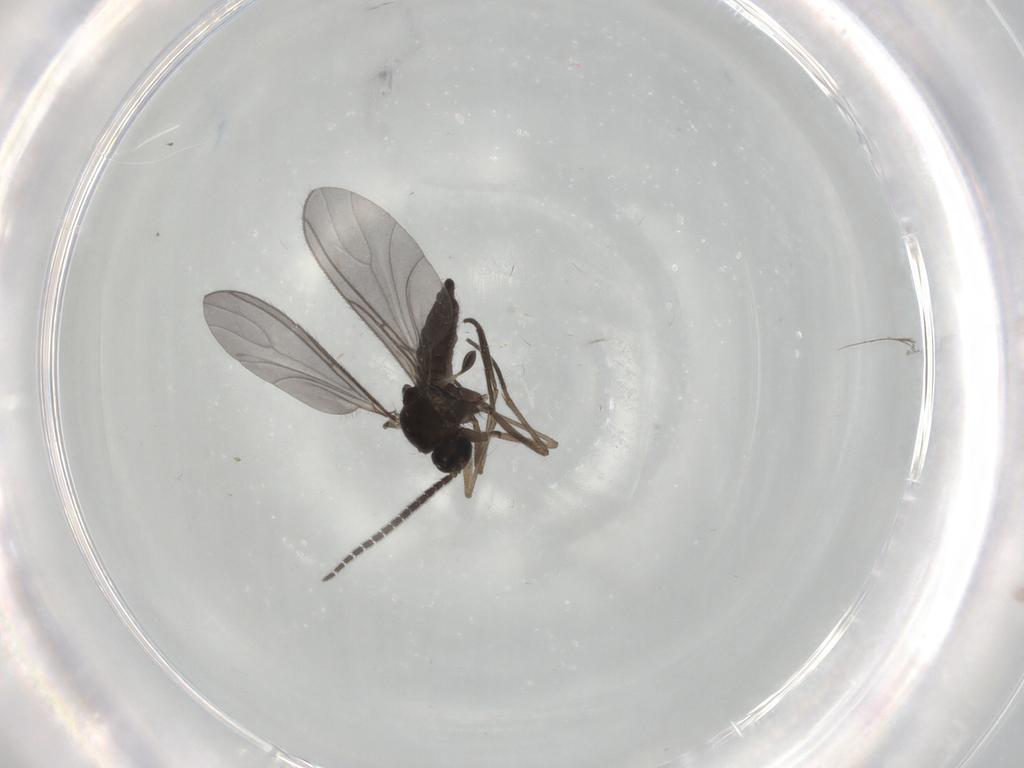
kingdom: Animalia
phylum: Arthropoda
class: Insecta
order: Diptera
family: Sciaridae
